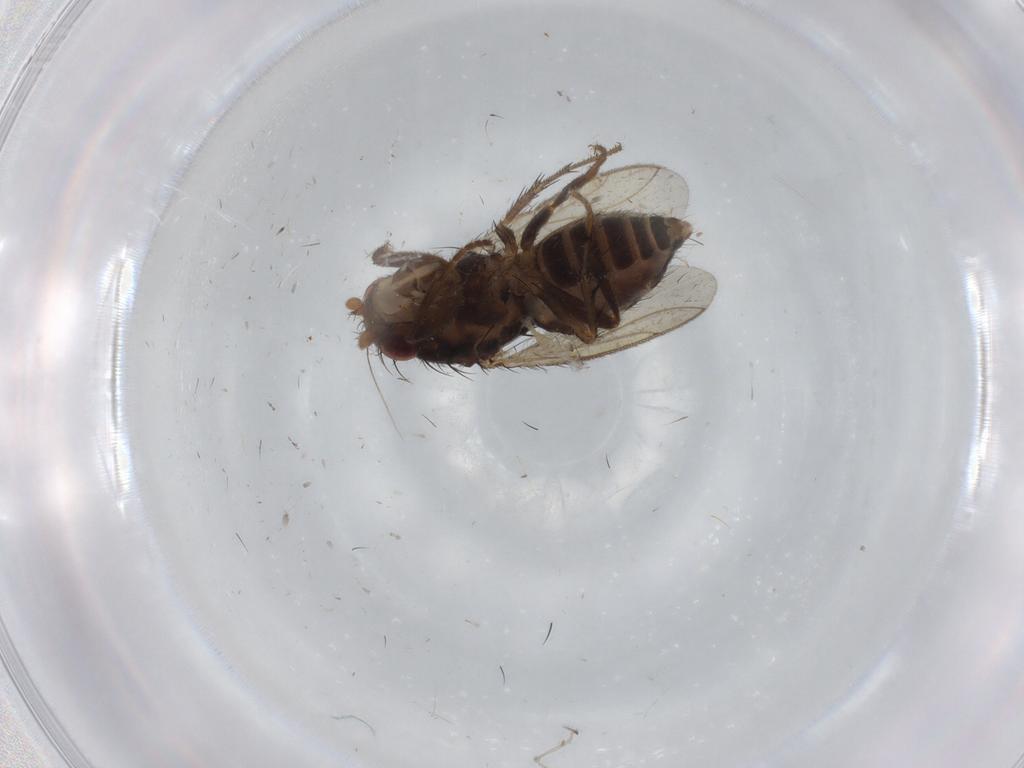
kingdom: Animalia
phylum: Arthropoda
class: Insecta
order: Diptera
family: Sphaeroceridae
